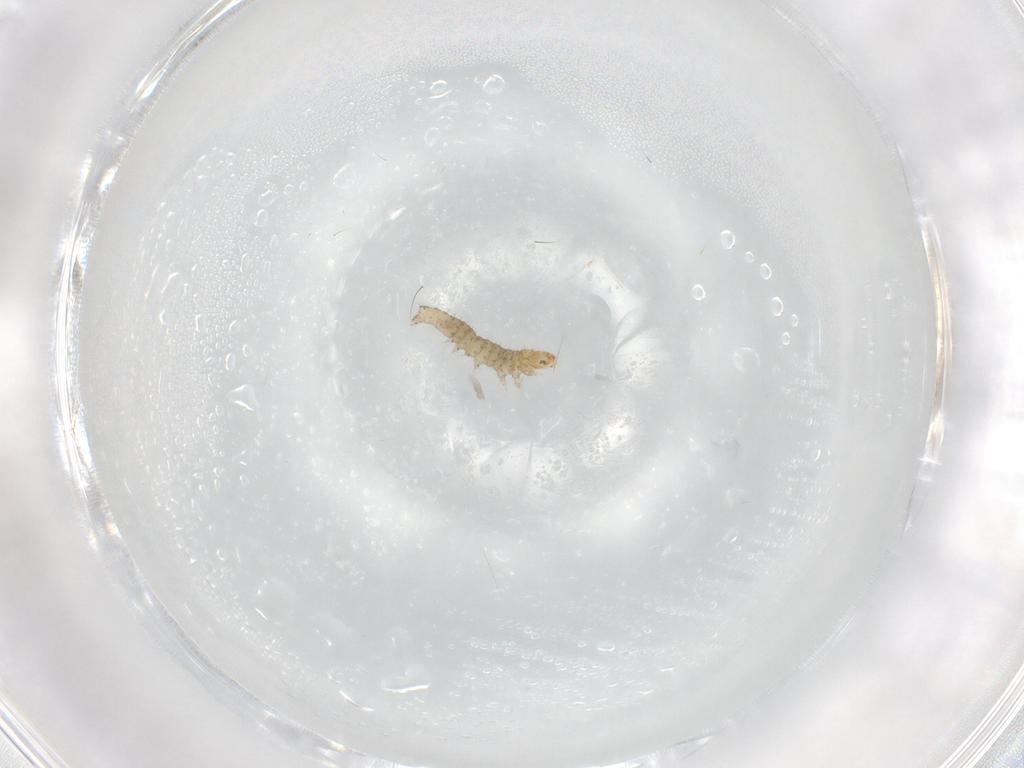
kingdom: Animalia
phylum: Arthropoda
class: Insecta
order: Lepidoptera
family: Gelechiidae
